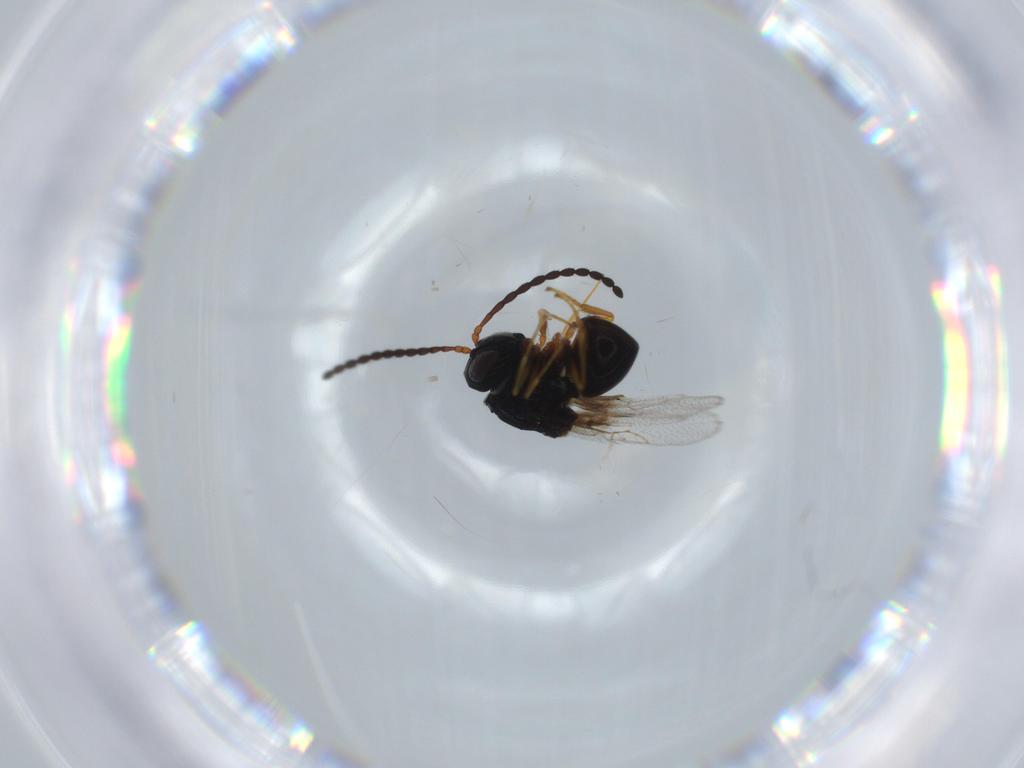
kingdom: Animalia
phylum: Arthropoda
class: Insecta
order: Hymenoptera
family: Figitidae
